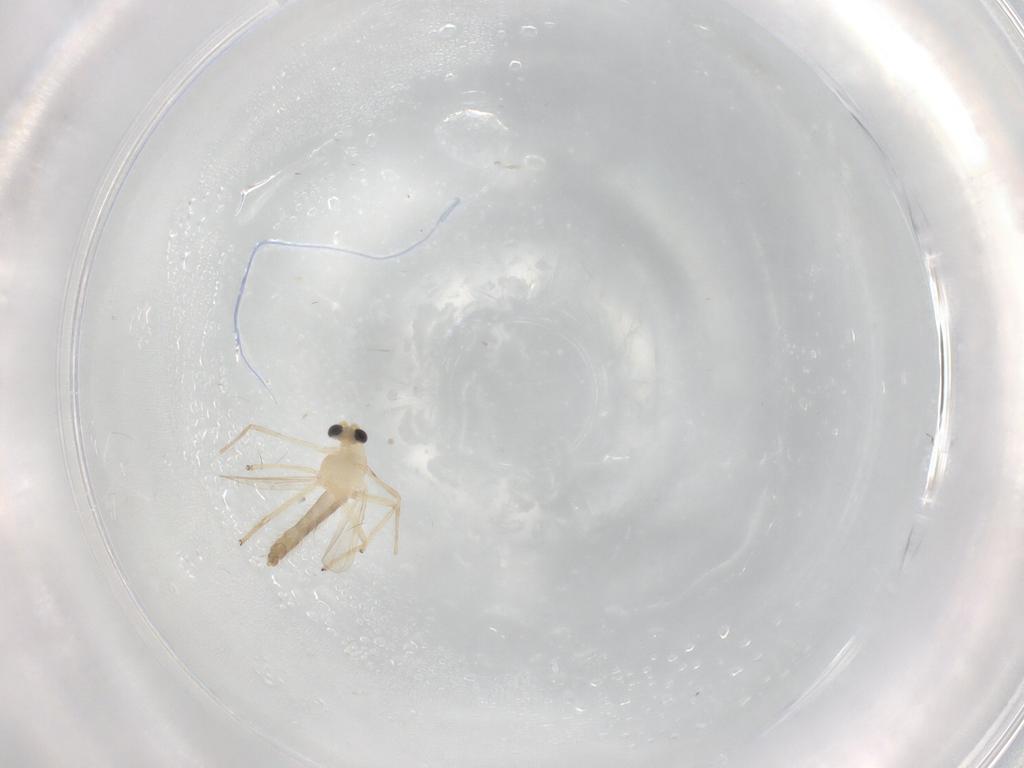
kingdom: Animalia
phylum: Arthropoda
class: Insecta
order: Diptera
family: Chironomidae
